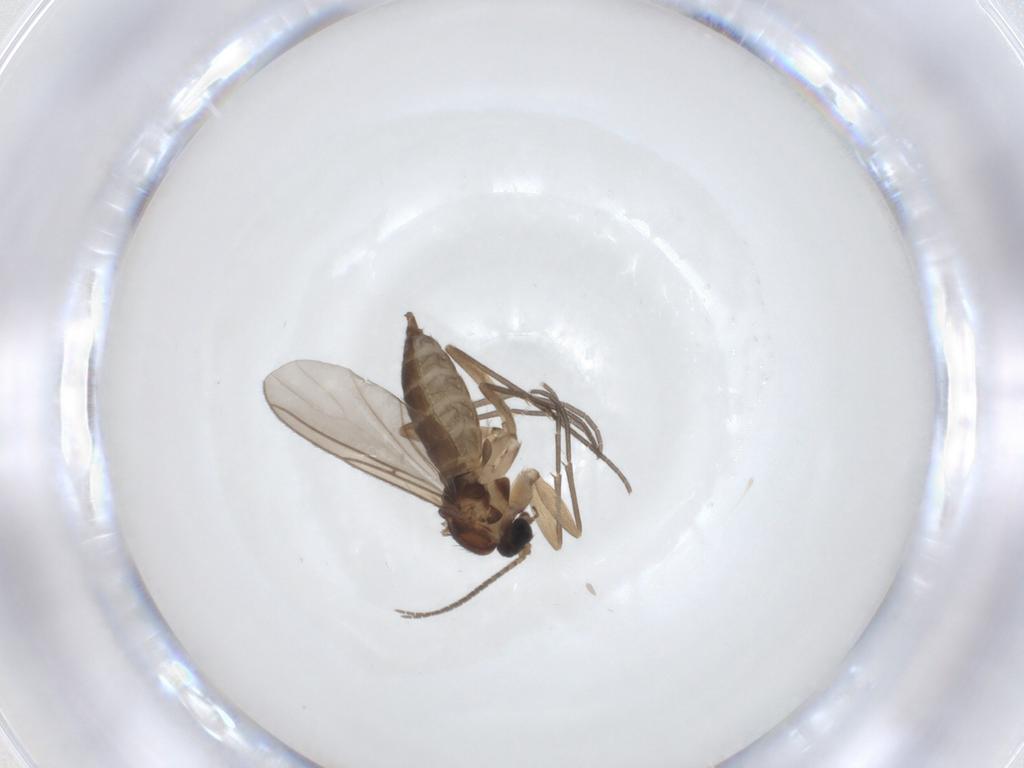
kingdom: Animalia
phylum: Arthropoda
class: Insecta
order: Diptera
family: Sciaridae
